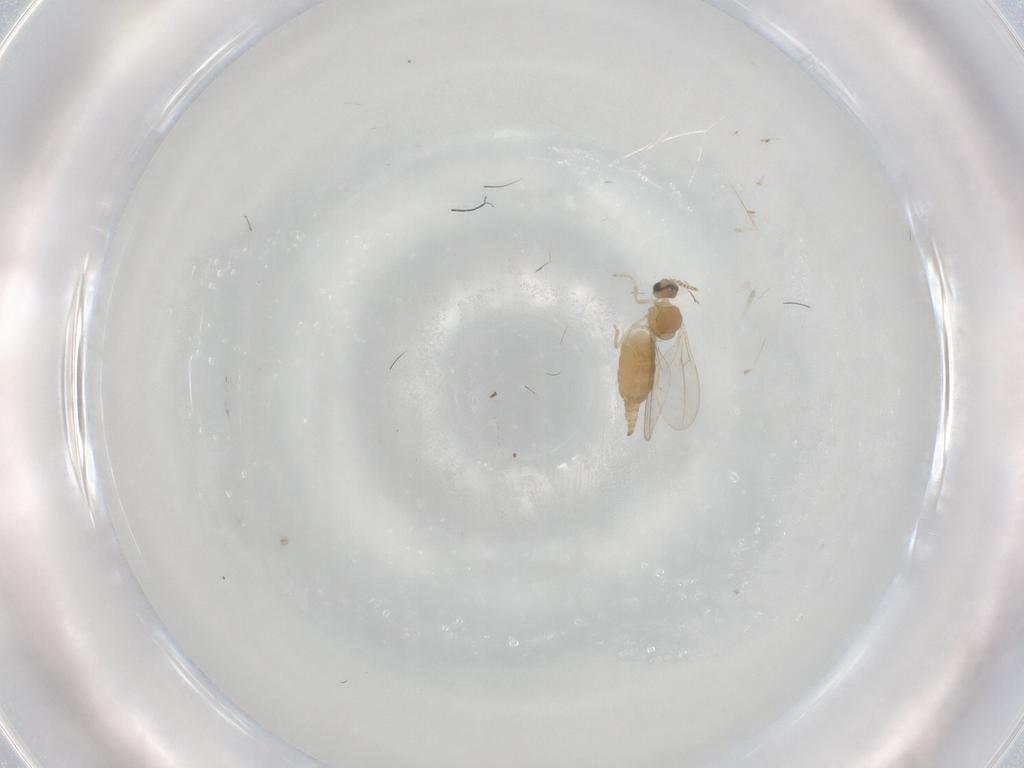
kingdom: Animalia
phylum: Arthropoda
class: Insecta
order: Diptera
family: Cecidomyiidae
